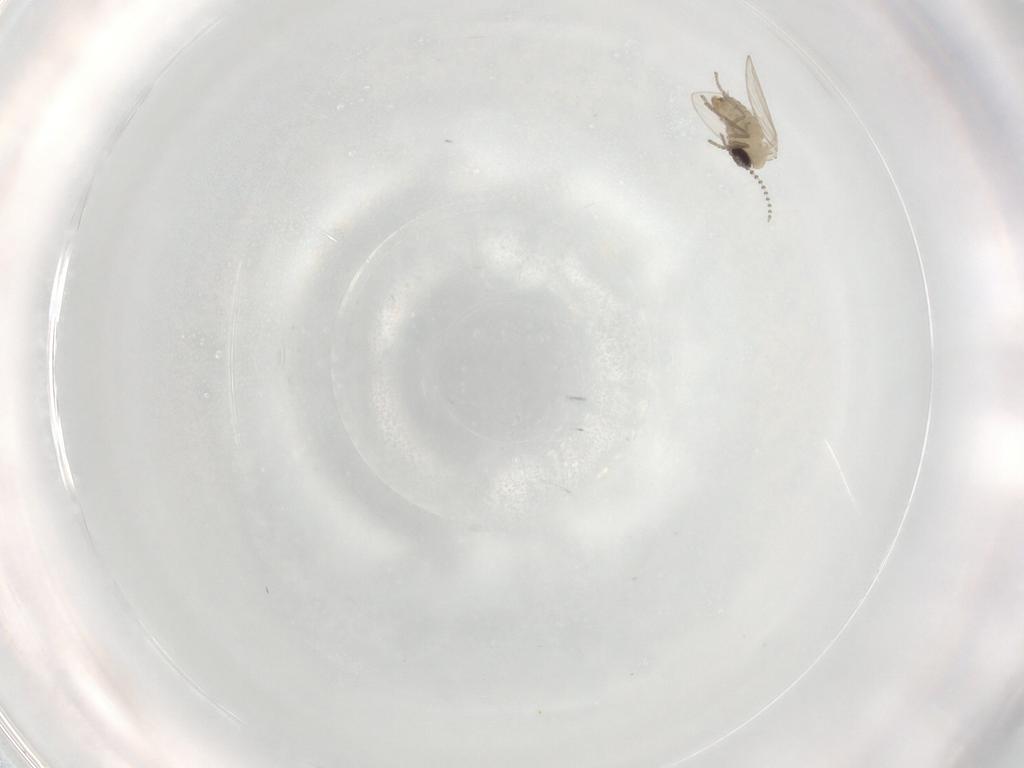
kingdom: Animalia
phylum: Arthropoda
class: Insecta
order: Diptera
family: Psychodidae
